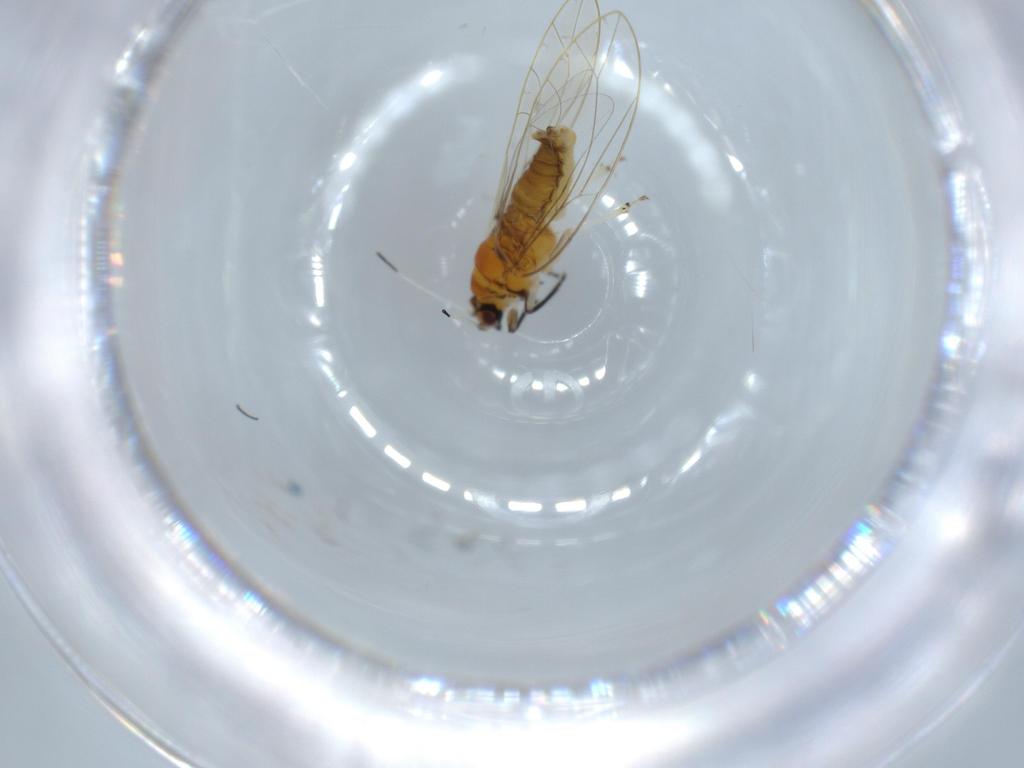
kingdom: Animalia
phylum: Arthropoda
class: Insecta
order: Hemiptera
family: Triozidae
